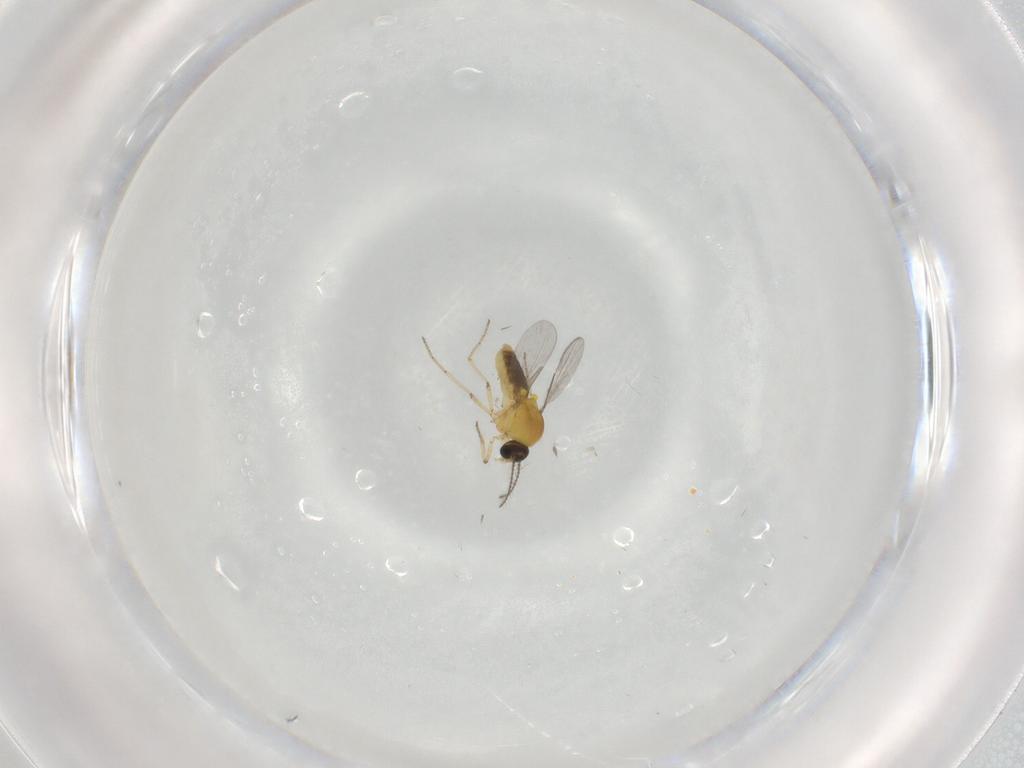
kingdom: Animalia
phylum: Arthropoda
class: Insecta
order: Diptera
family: Ceratopogonidae
